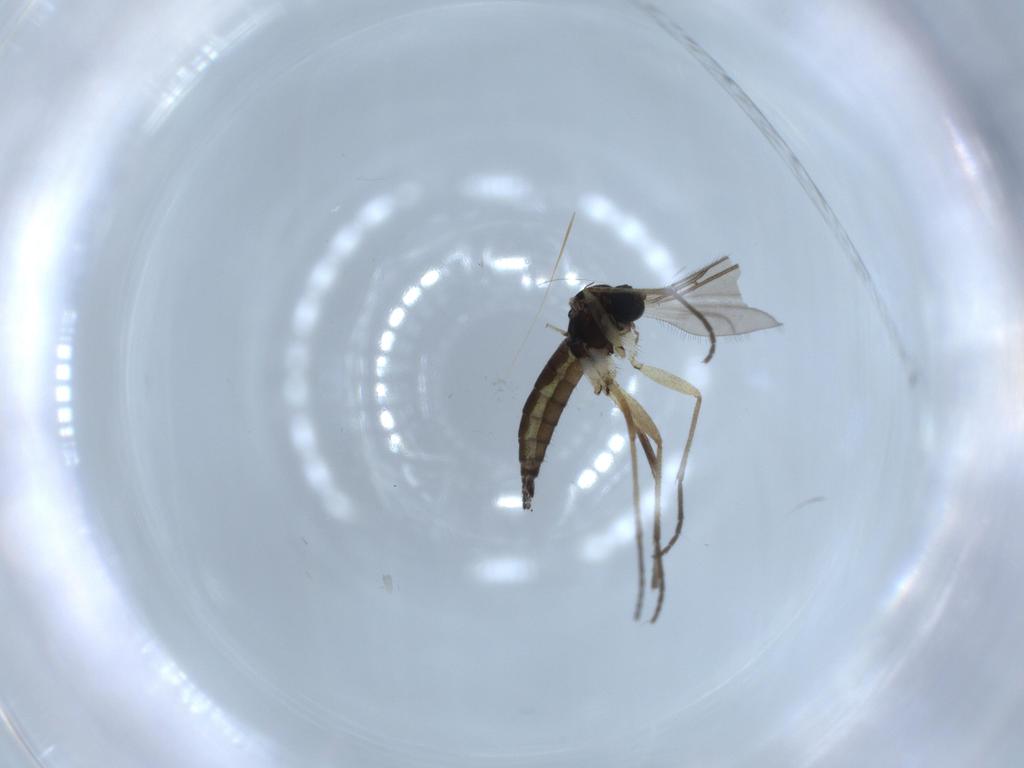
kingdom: Animalia
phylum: Arthropoda
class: Insecta
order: Diptera
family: Sciaridae
